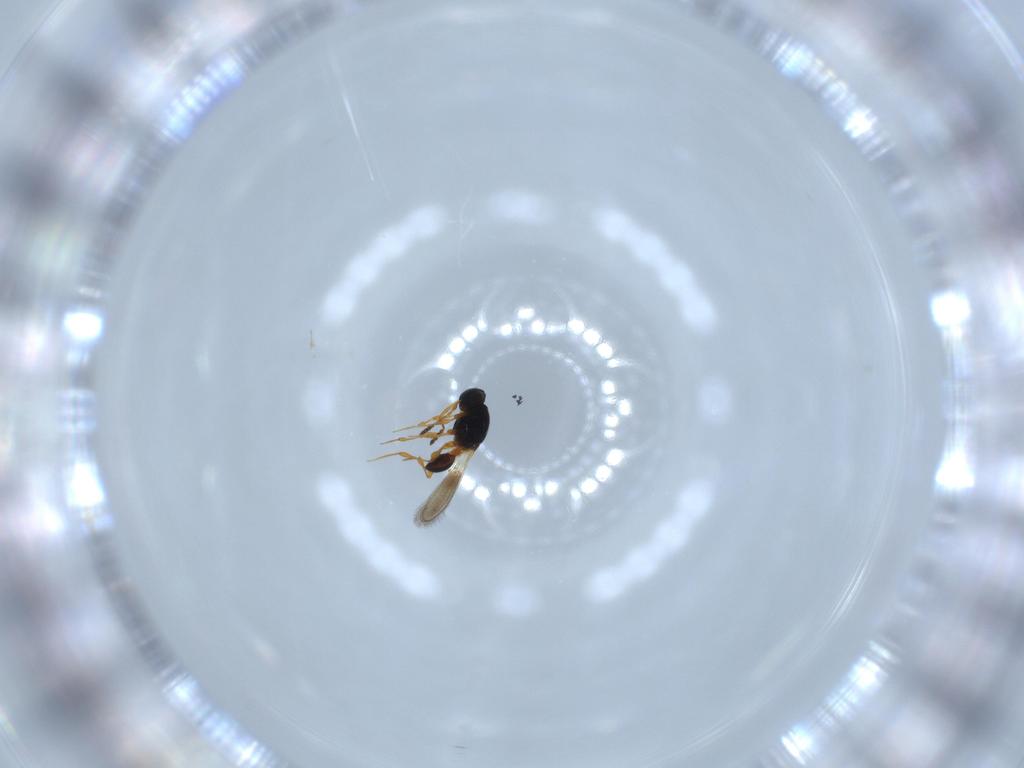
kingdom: Animalia
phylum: Arthropoda
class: Insecta
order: Hymenoptera
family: Platygastridae
